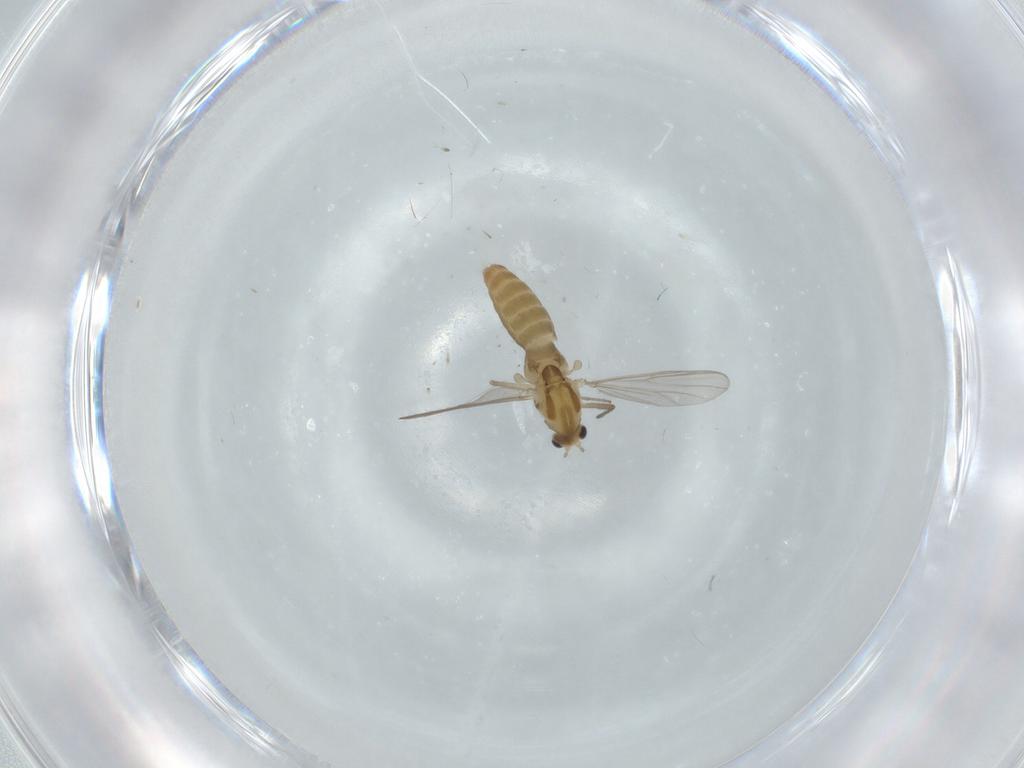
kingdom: Animalia
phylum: Arthropoda
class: Insecta
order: Diptera
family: Chironomidae
